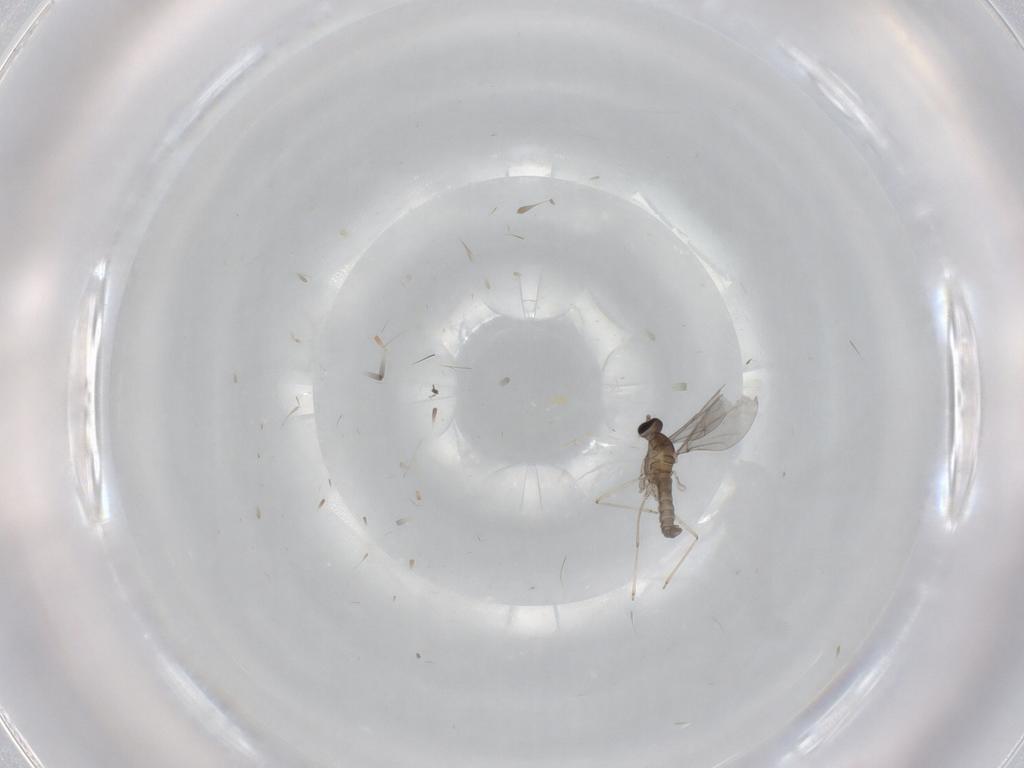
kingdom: Animalia
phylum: Arthropoda
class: Insecta
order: Diptera
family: Cecidomyiidae
